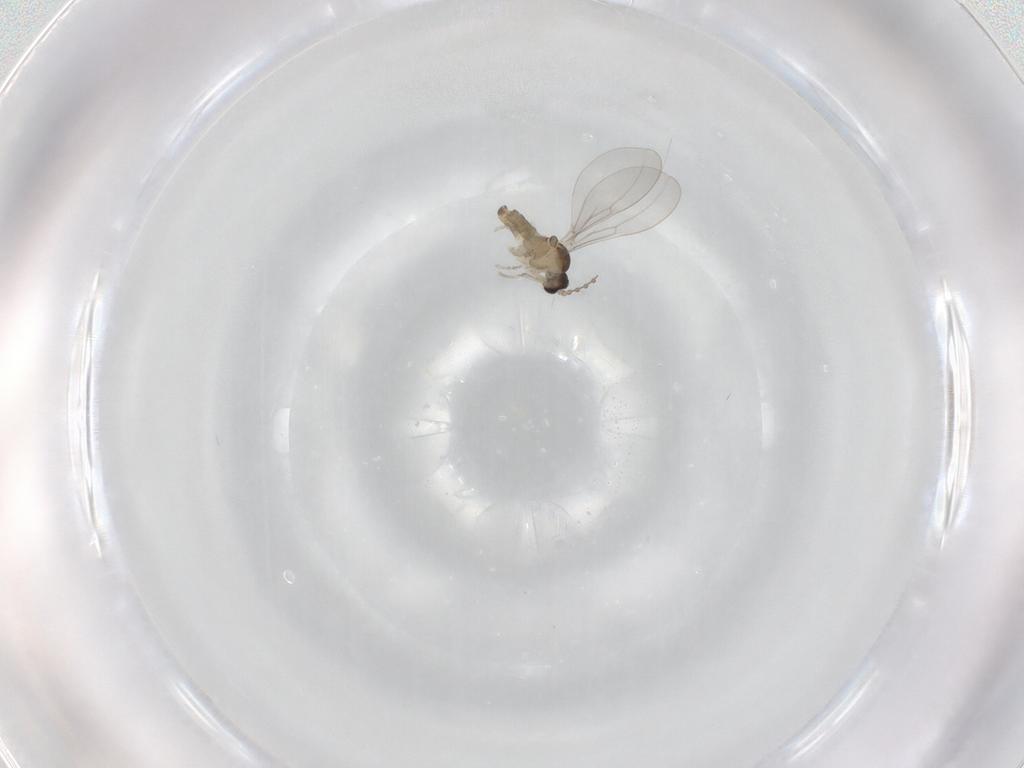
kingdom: Animalia
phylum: Arthropoda
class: Insecta
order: Diptera
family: Cecidomyiidae
